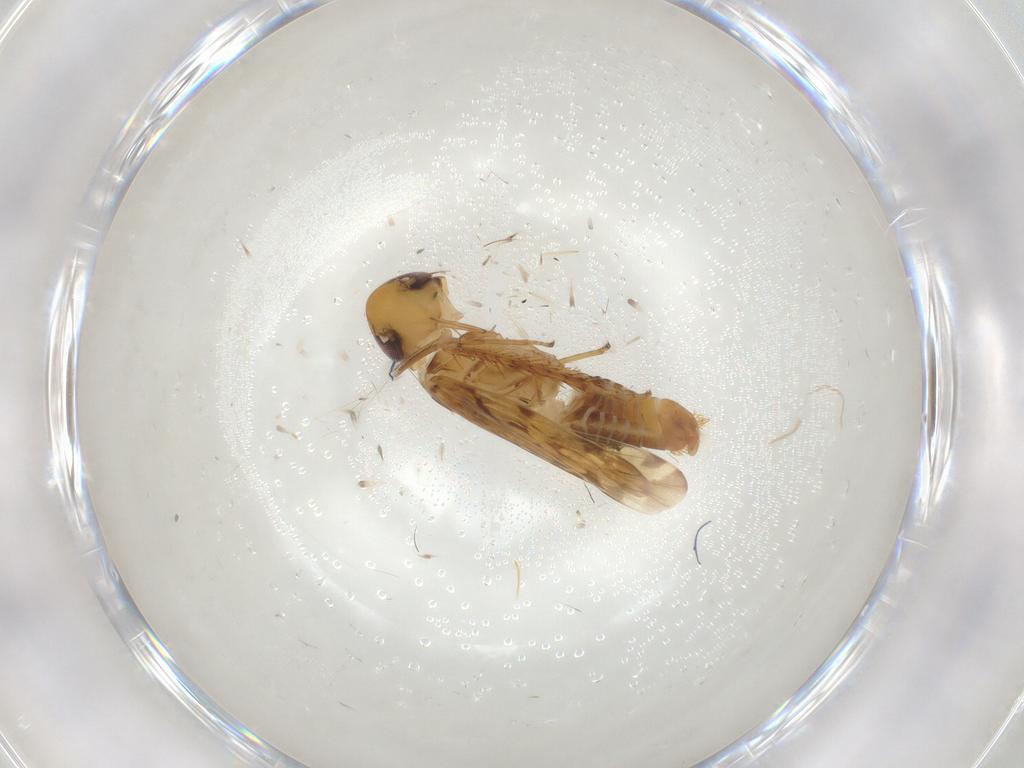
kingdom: Animalia
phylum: Arthropoda
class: Insecta
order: Hemiptera
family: Cicadellidae
